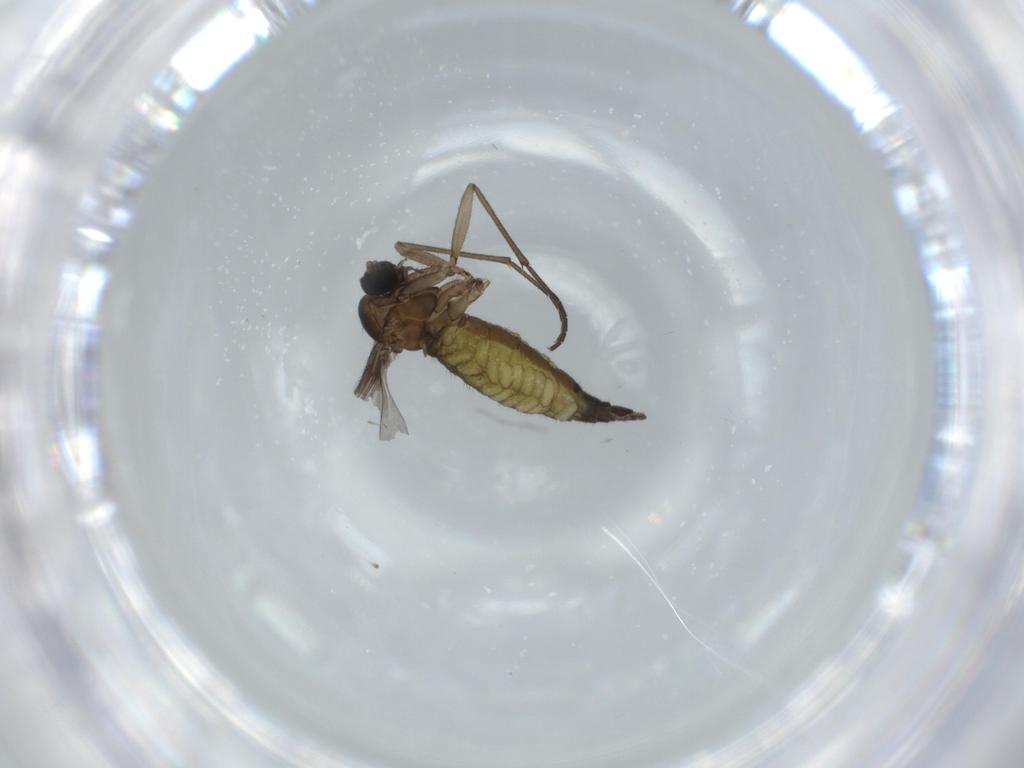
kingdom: Animalia
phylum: Arthropoda
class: Insecta
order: Diptera
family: Sciaridae
